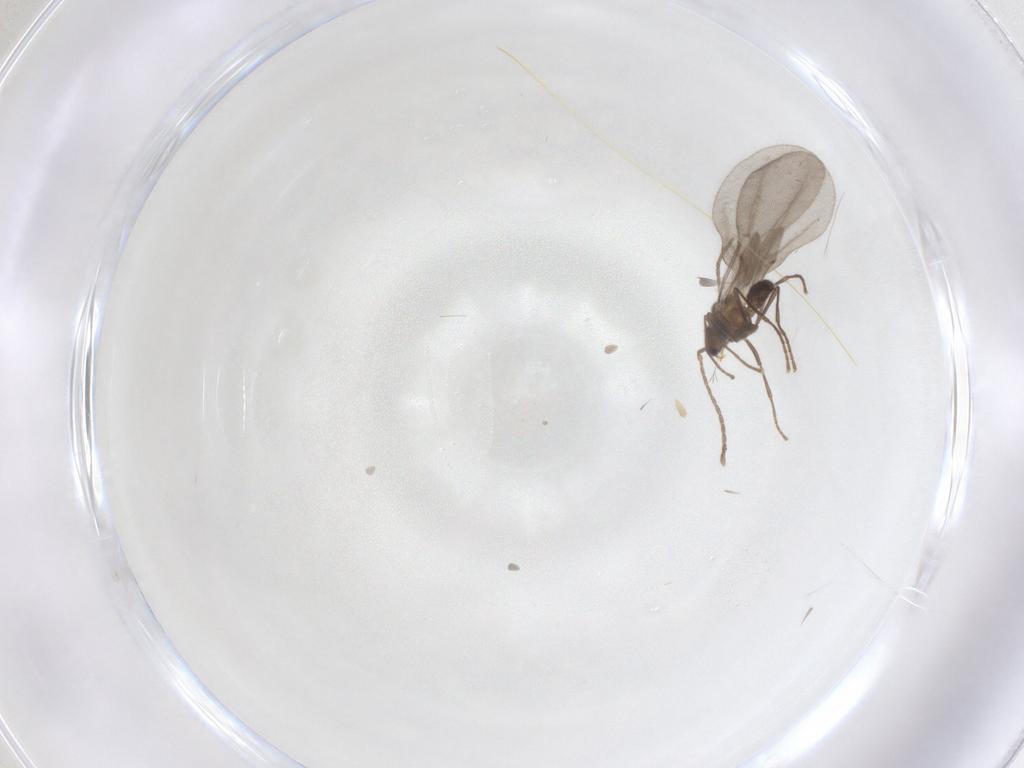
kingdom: Animalia
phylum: Arthropoda
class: Insecta
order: Hymenoptera
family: Formicidae
